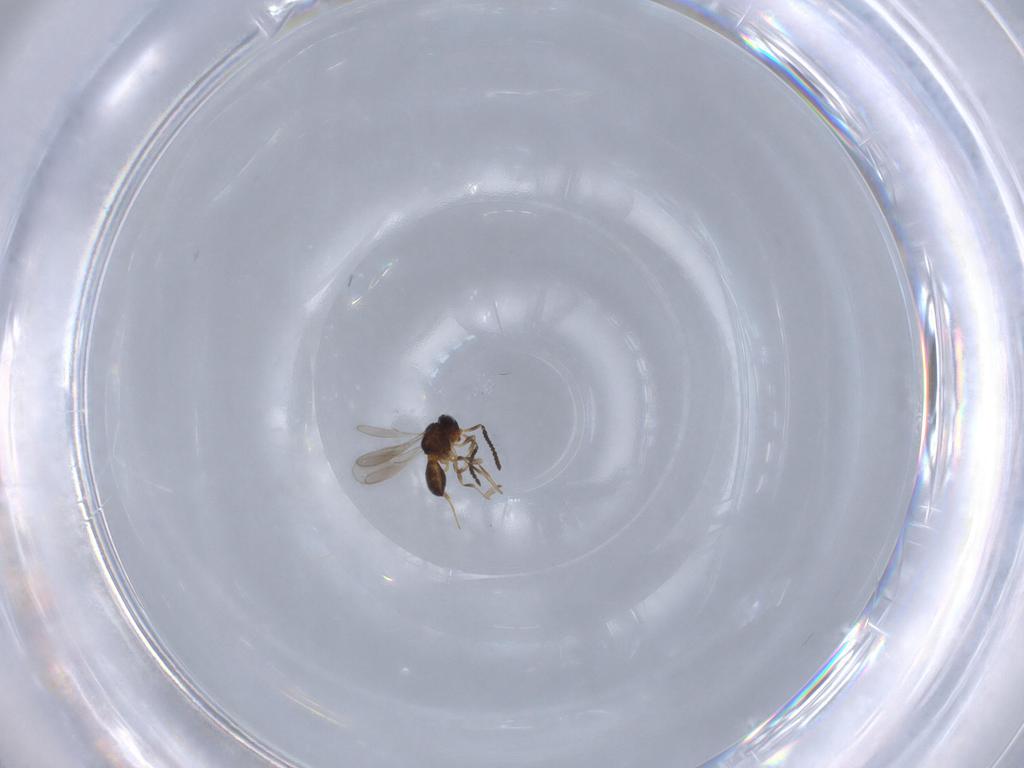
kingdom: Animalia
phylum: Arthropoda
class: Insecta
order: Hymenoptera
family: Scelionidae
